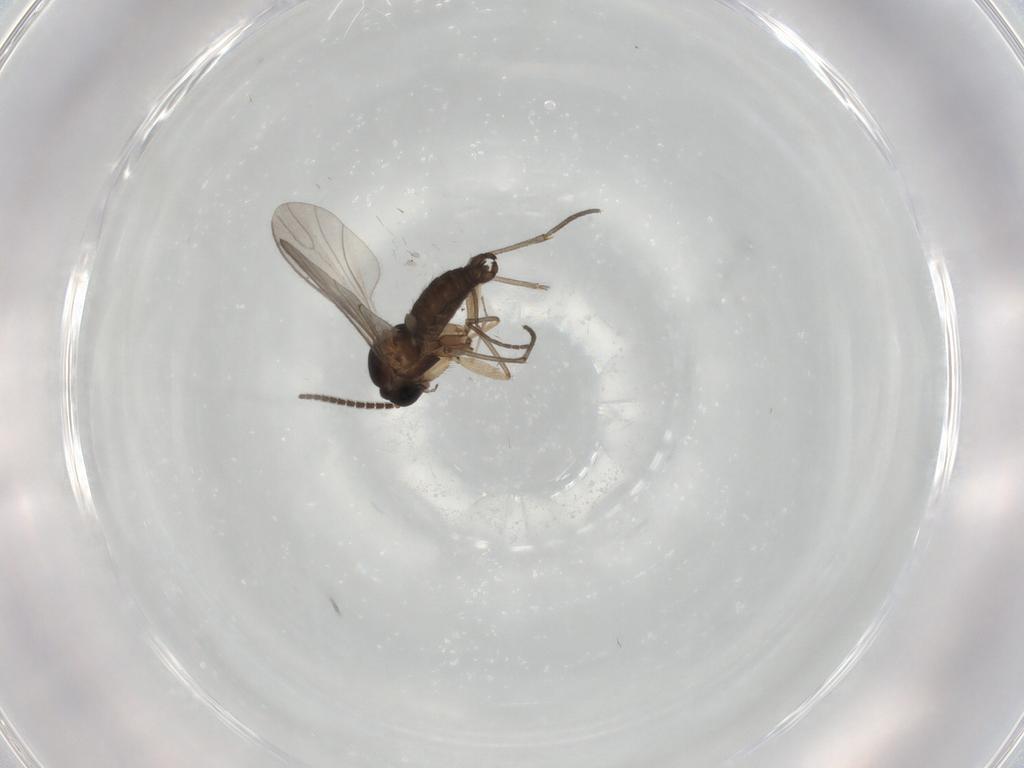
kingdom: Animalia
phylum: Arthropoda
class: Insecta
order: Diptera
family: Sciaridae
